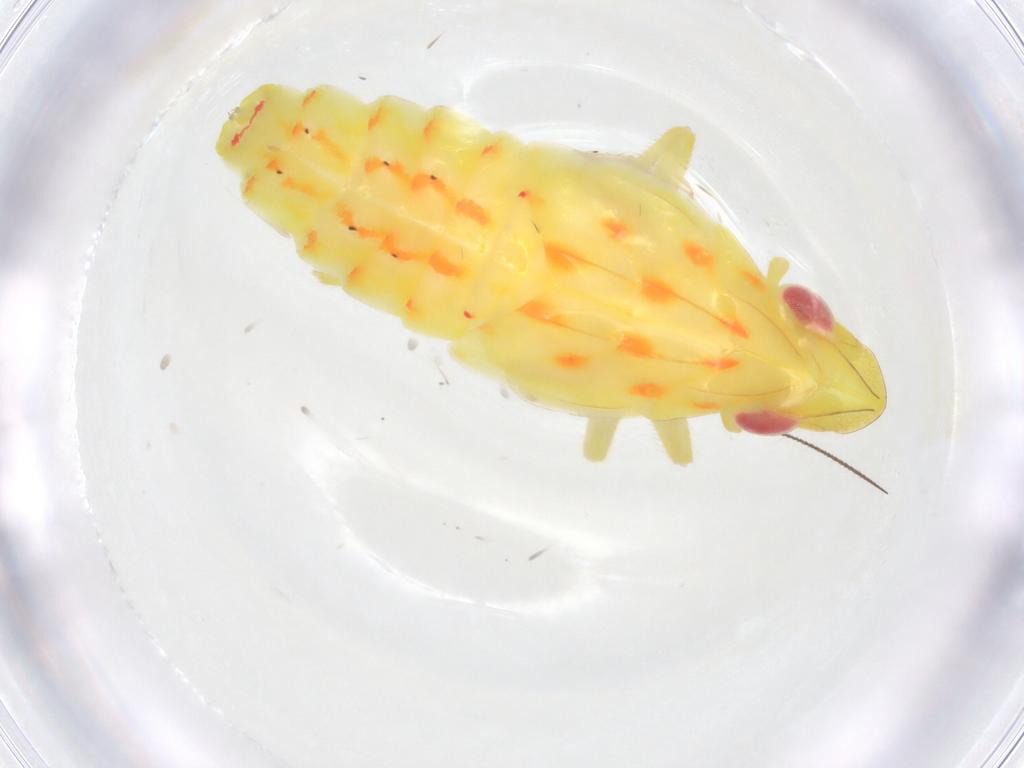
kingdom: Animalia
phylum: Arthropoda
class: Insecta
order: Hemiptera
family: Tropiduchidae
